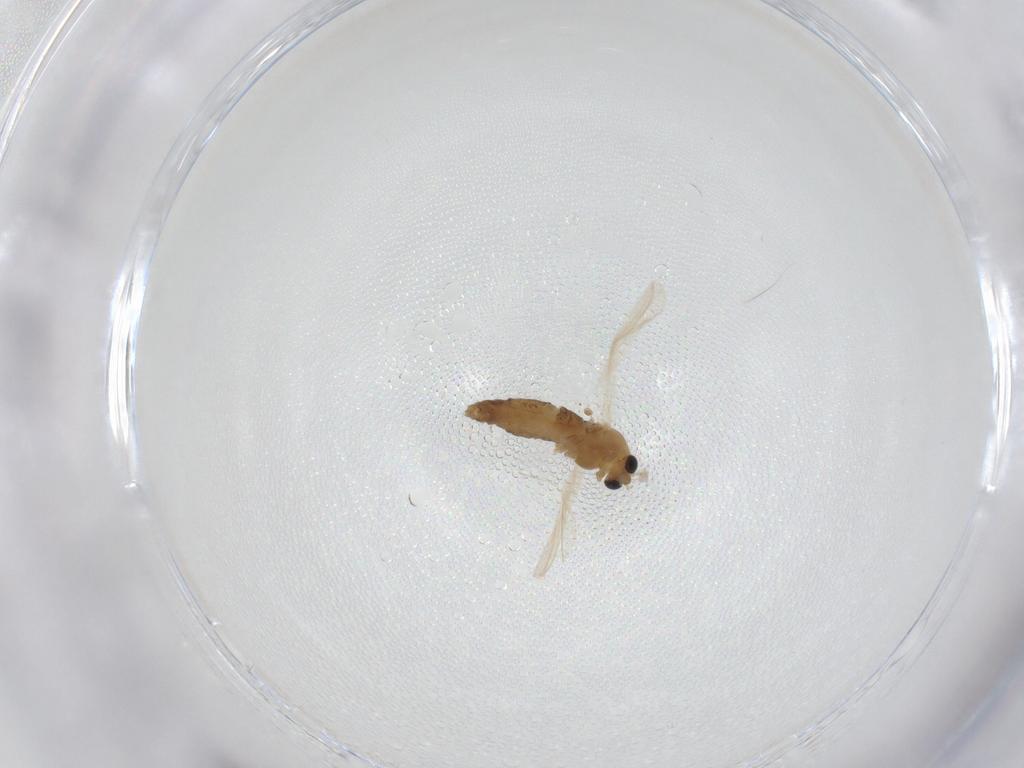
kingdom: Animalia
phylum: Arthropoda
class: Insecta
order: Diptera
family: Chironomidae
